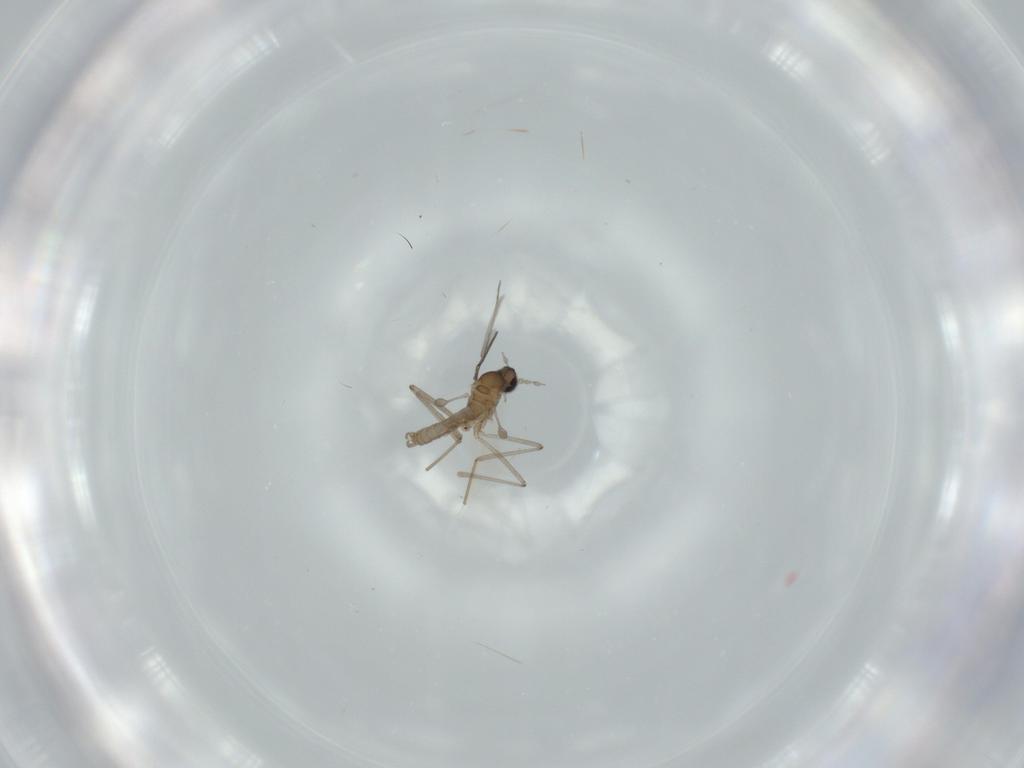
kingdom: Animalia
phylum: Arthropoda
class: Insecta
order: Diptera
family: Cecidomyiidae
